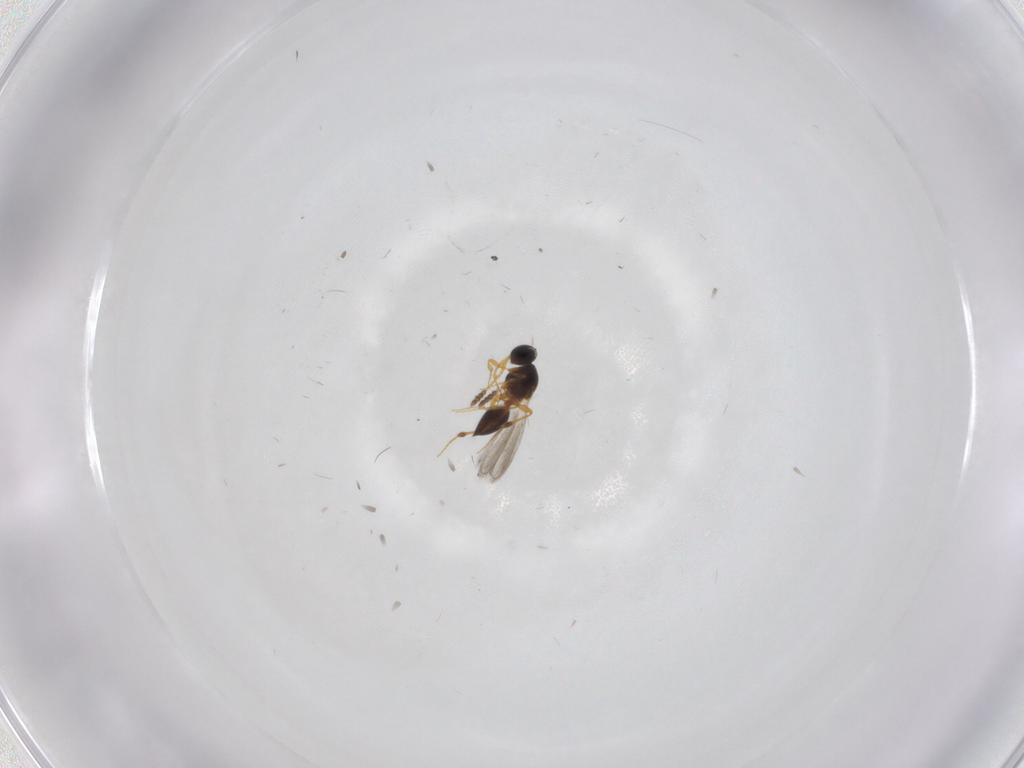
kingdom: Animalia
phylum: Arthropoda
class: Insecta
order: Hymenoptera
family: Platygastridae
